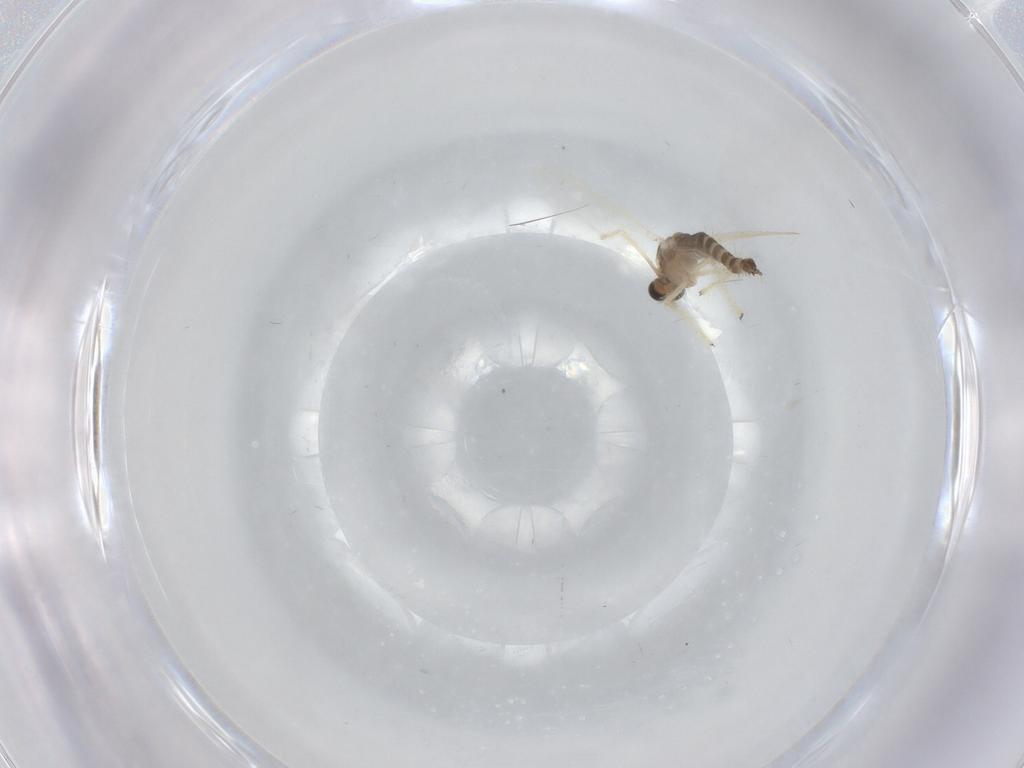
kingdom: Animalia
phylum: Arthropoda
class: Insecta
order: Diptera
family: Chironomidae
